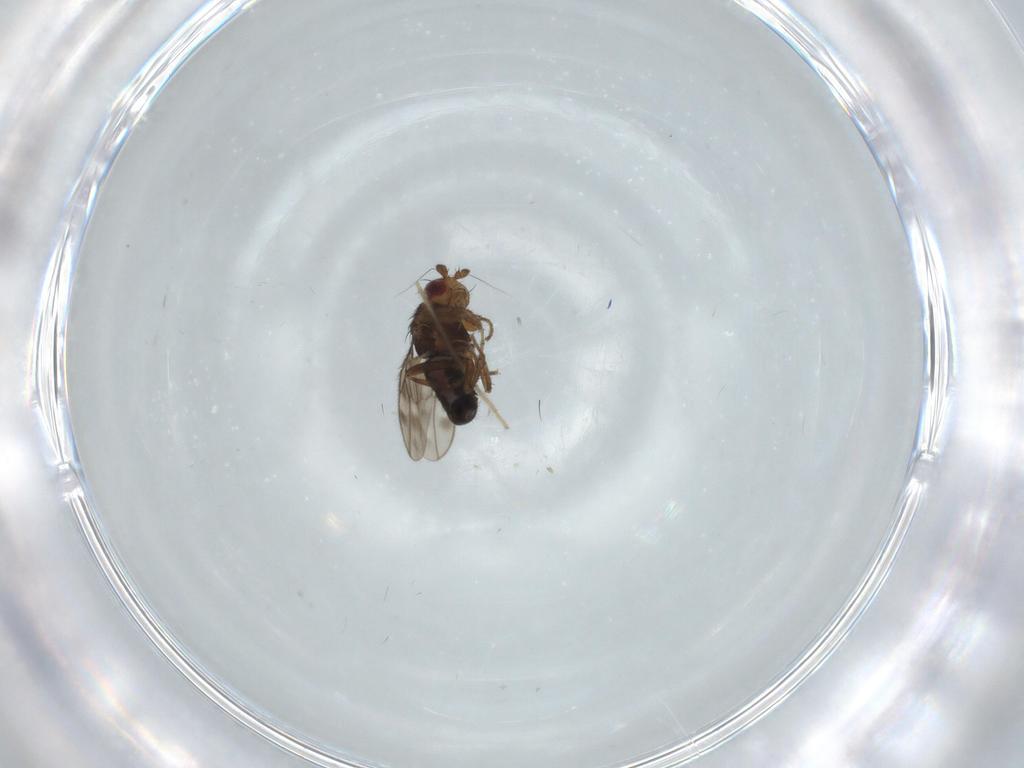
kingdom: Animalia
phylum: Arthropoda
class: Insecta
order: Diptera
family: Sphaeroceridae
